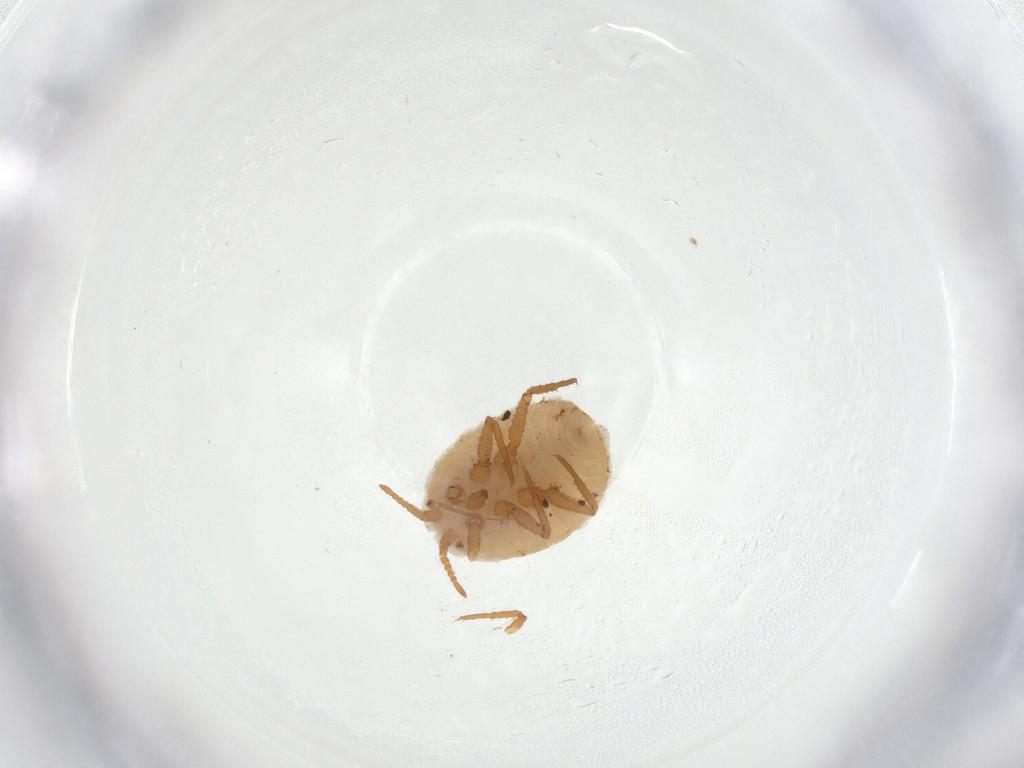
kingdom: Animalia
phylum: Arthropoda
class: Insecta
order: Hemiptera
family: Ortheziidae
